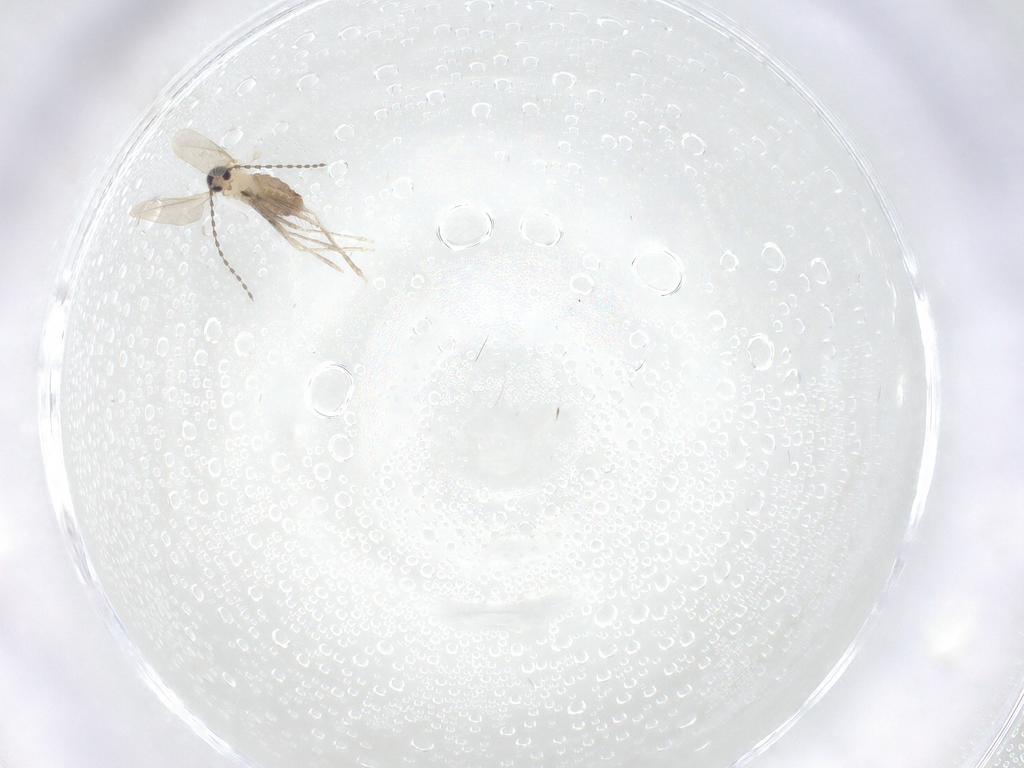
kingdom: Animalia
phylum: Arthropoda
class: Insecta
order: Diptera
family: Cecidomyiidae
